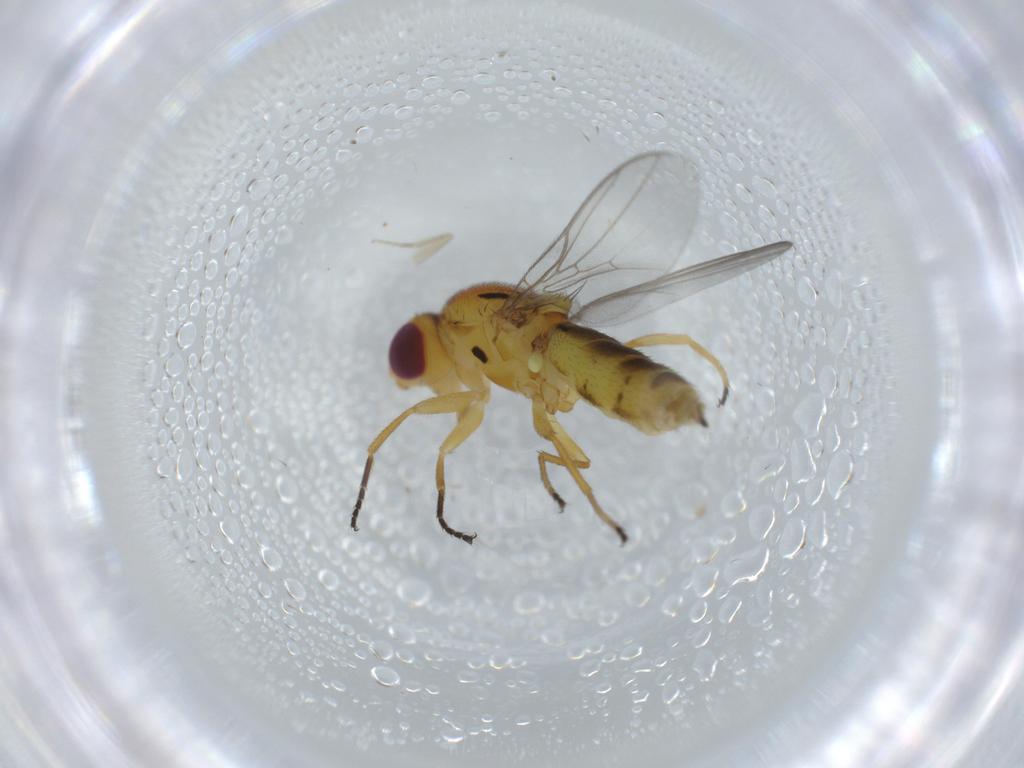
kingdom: Animalia
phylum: Arthropoda
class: Insecta
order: Diptera
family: Chloropidae
